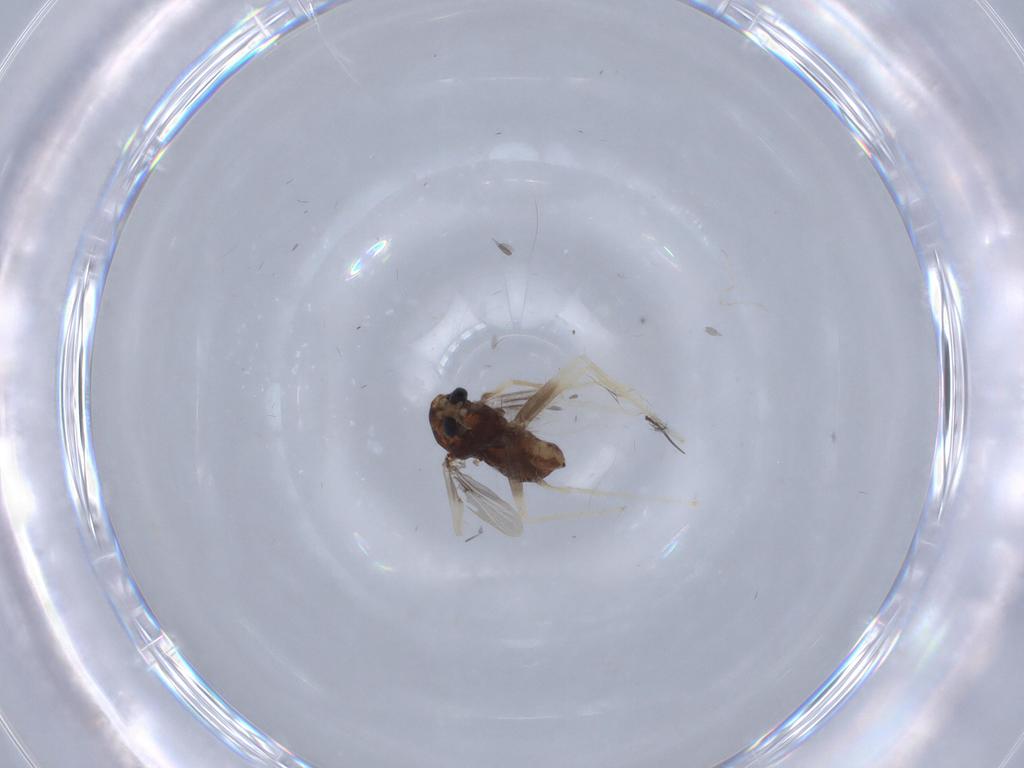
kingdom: Animalia
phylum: Arthropoda
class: Insecta
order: Diptera
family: Chironomidae
